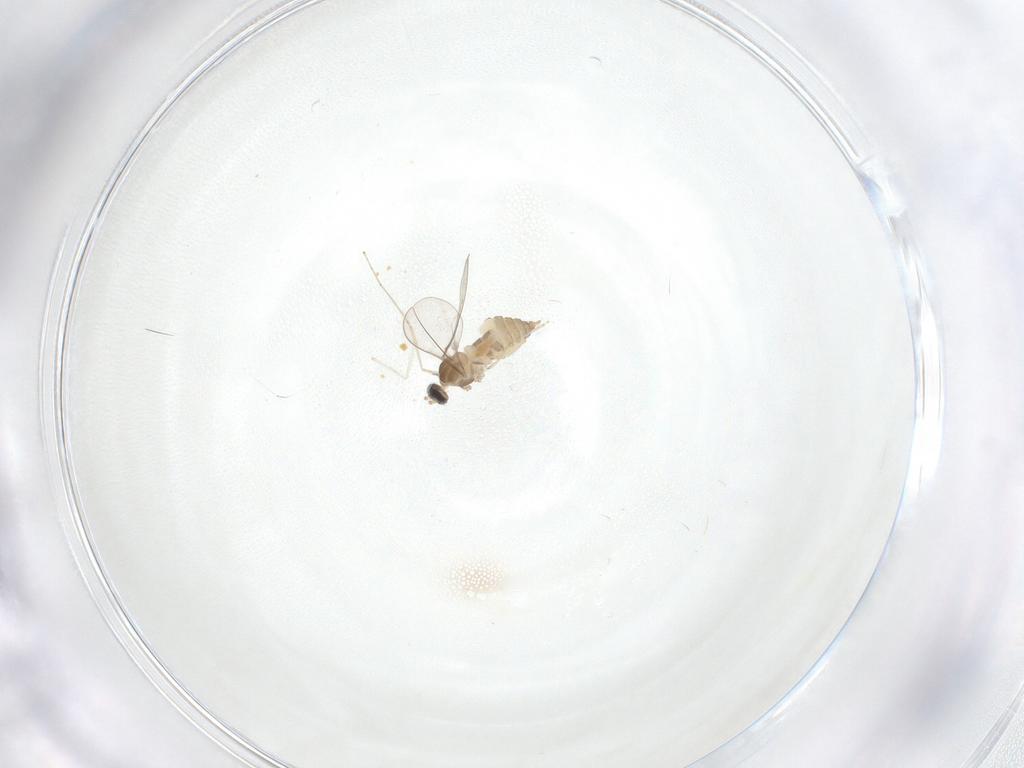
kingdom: Animalia
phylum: Arthropoda
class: Insecta
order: Diptera
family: Cecidomyiidae
